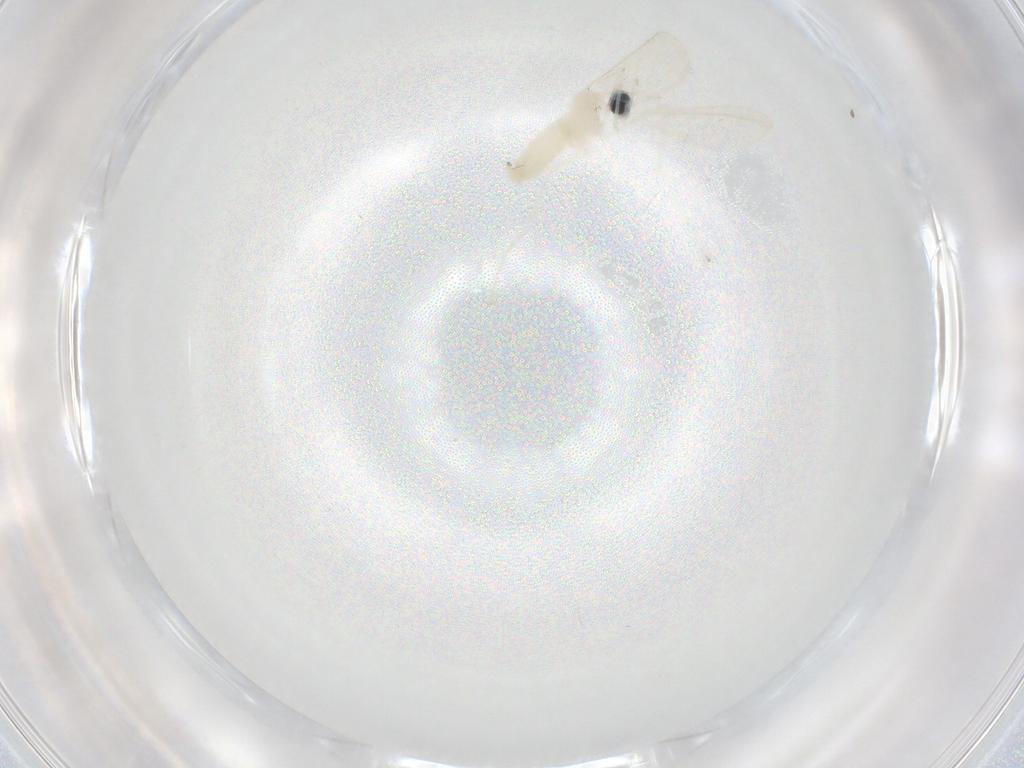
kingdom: Animalia
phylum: Arthropoda
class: Insecta
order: Diptera
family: Cecidomyiidae
